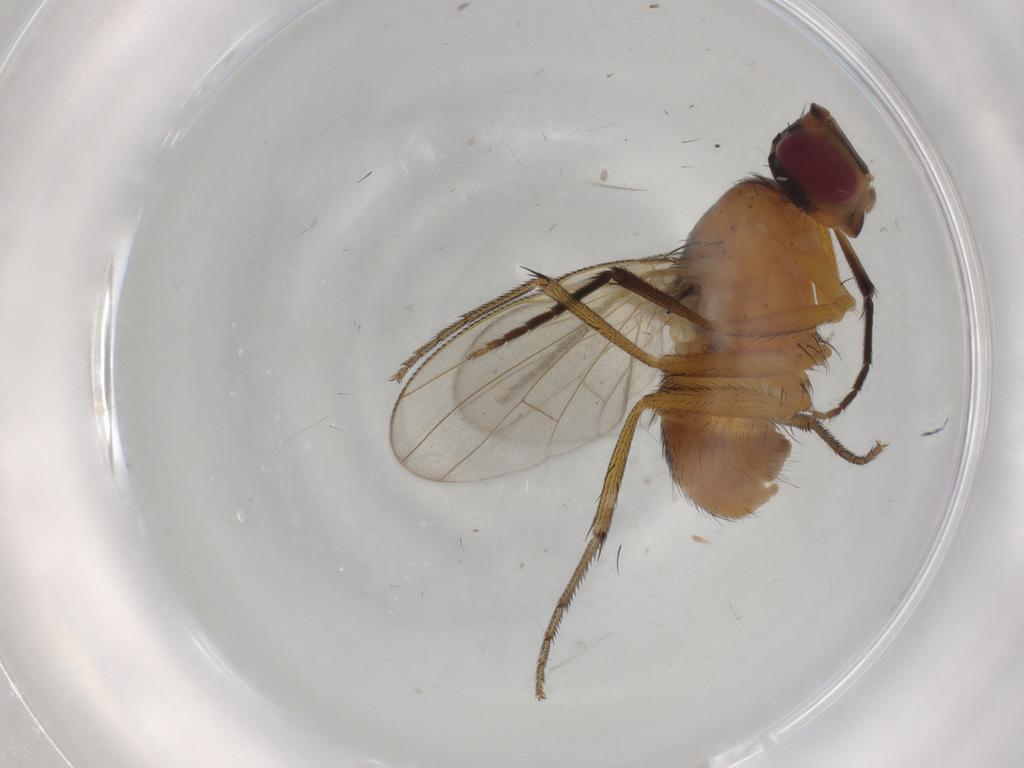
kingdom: Animalia
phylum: Arthropoda
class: Insecta
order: Diptera
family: Muscidae
